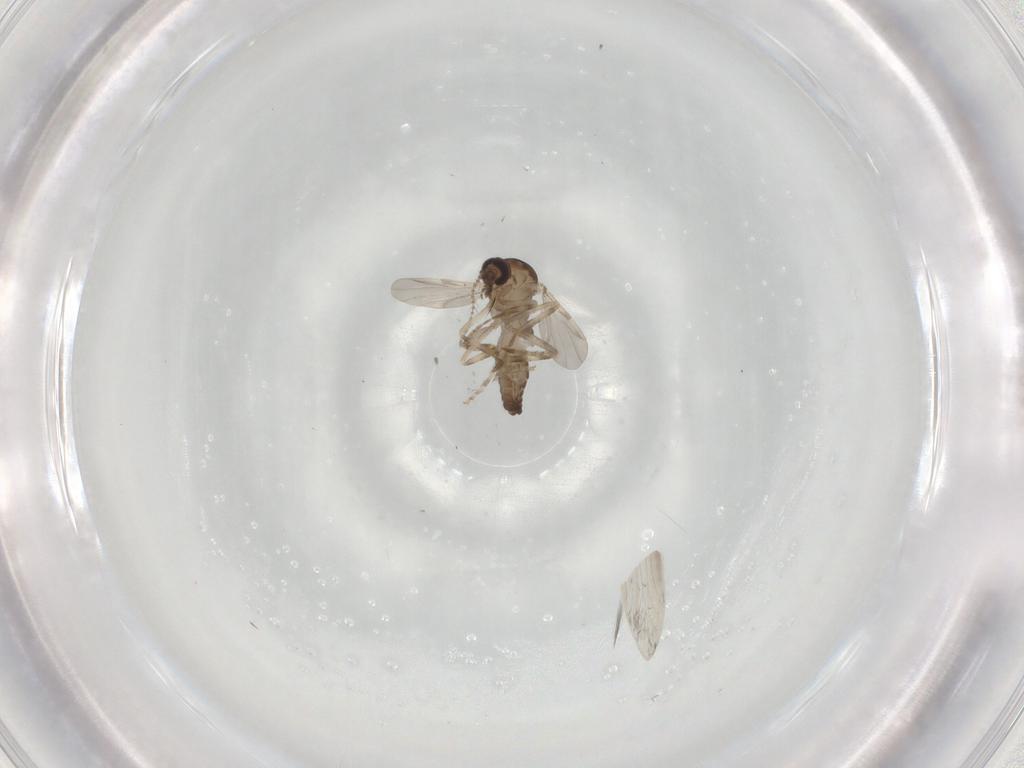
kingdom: Animalia
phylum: Arthropoda
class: Insecta
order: Diptera
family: Ceratopogonidae
